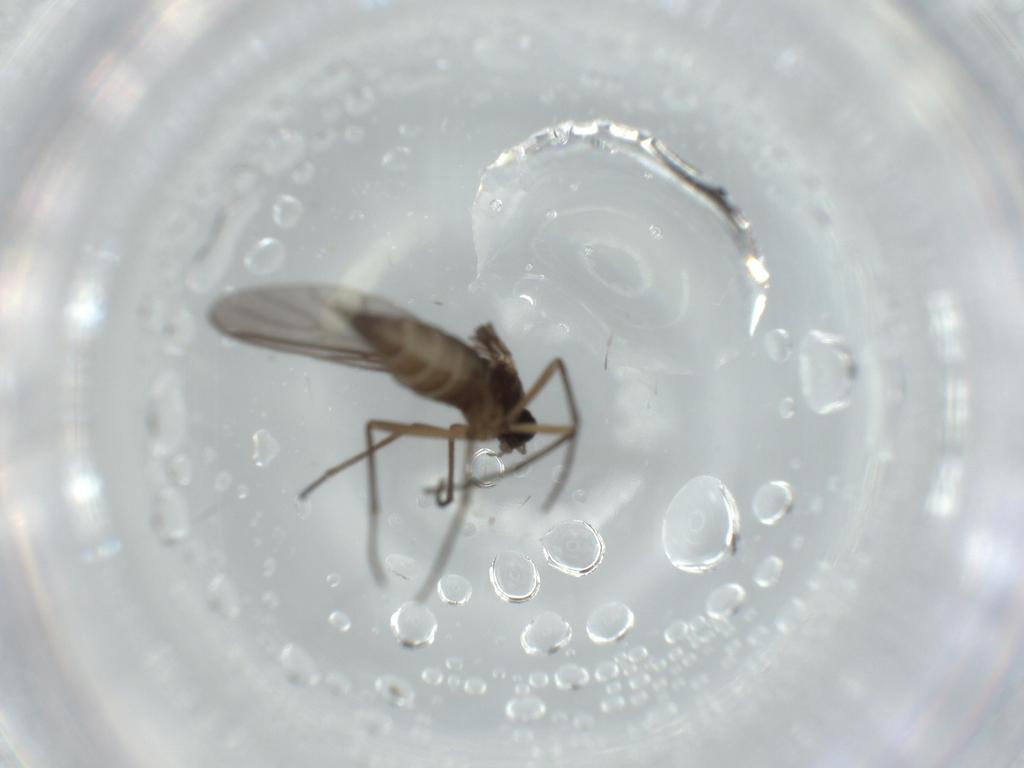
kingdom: Animalia
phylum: Arthropoda
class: Insecta
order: Diptera
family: Sciaridae
